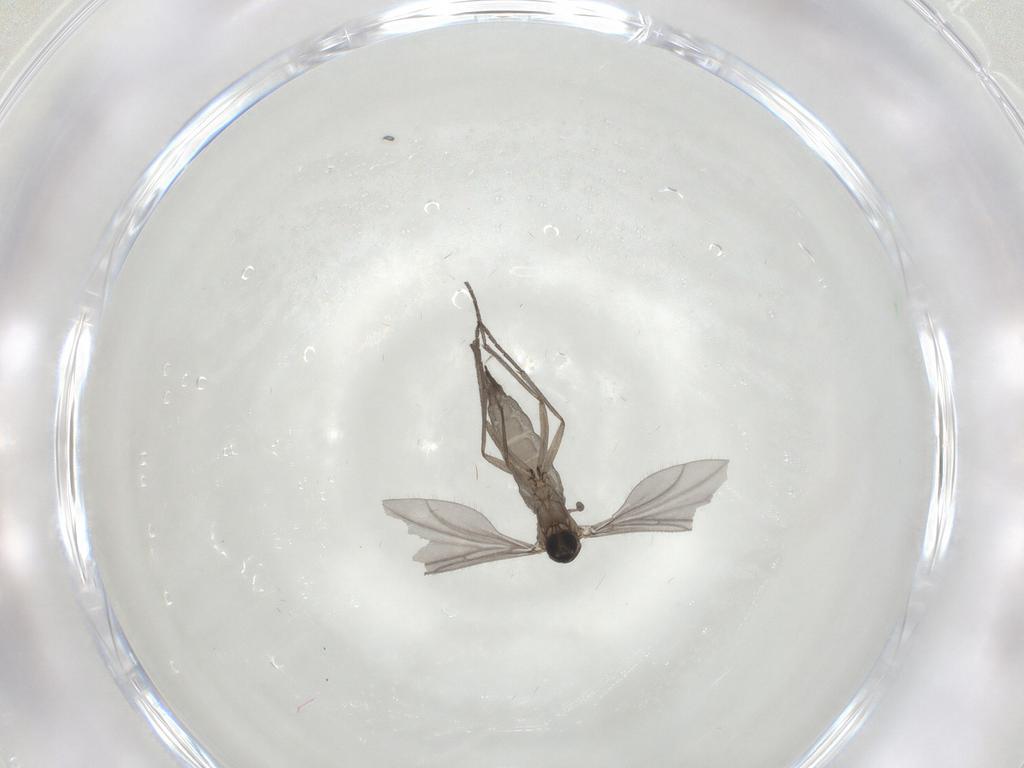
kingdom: Animalia
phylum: Arthropoda
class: Insecta
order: Diptera
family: Sciaridae
